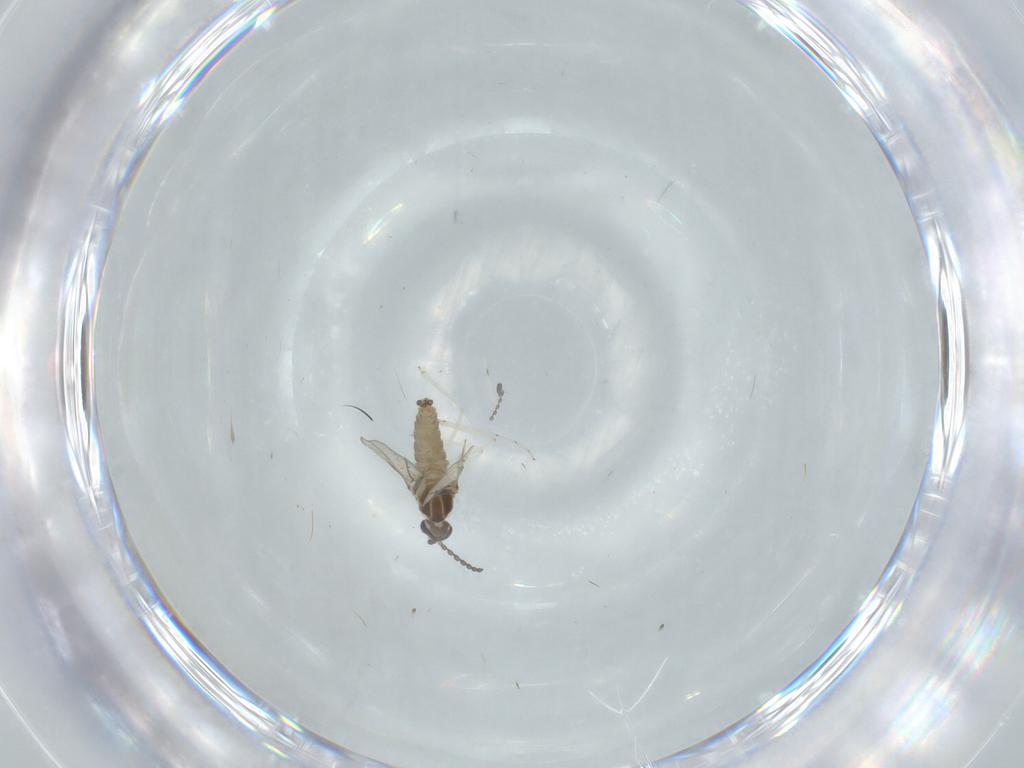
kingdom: Animalia
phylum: Arthropoda
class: Insecta
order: Diptera
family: Cecidomyiidae
